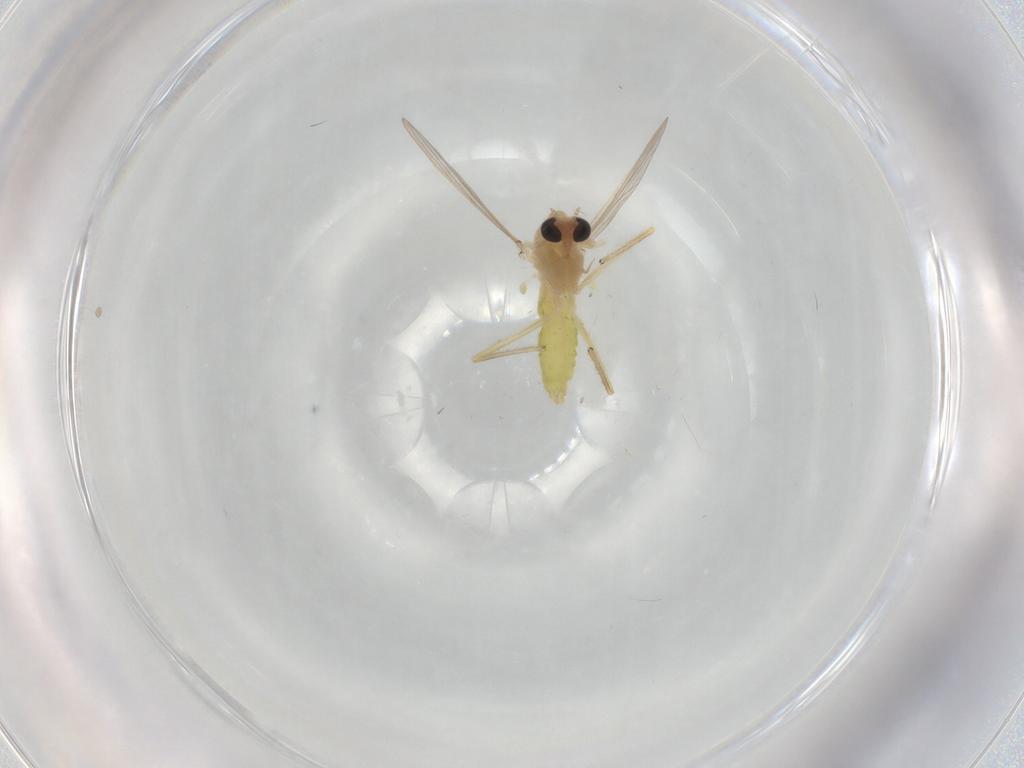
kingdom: Animalia
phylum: Arthropoda
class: Insecta
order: Diptera
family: Chironomidae
